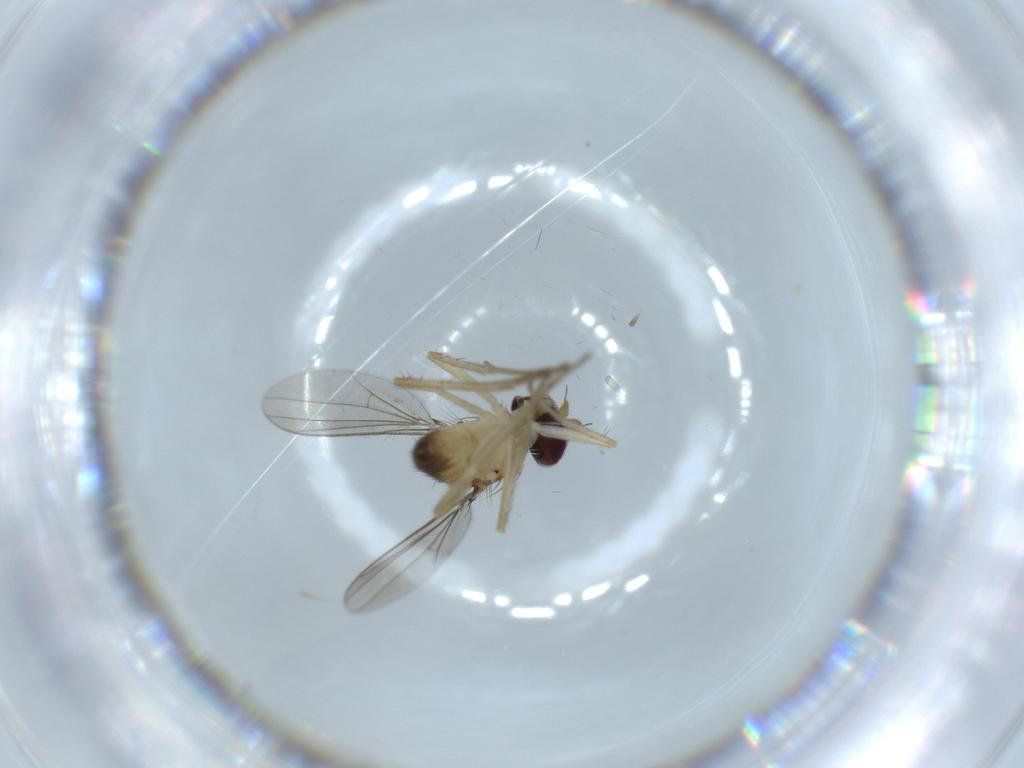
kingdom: Animalia
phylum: Arthropoda
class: Insecta
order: Diptera
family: Dolichopodidae
